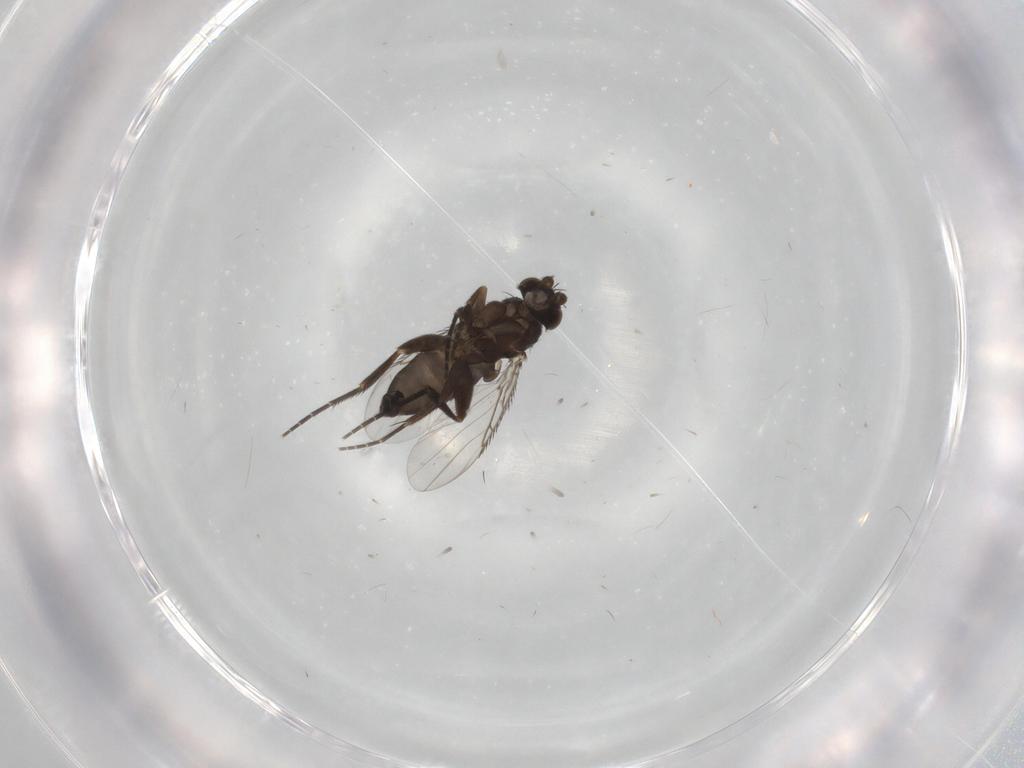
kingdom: Animalia
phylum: Arthropoda
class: Insecta
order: Diptera
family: Phoridae
